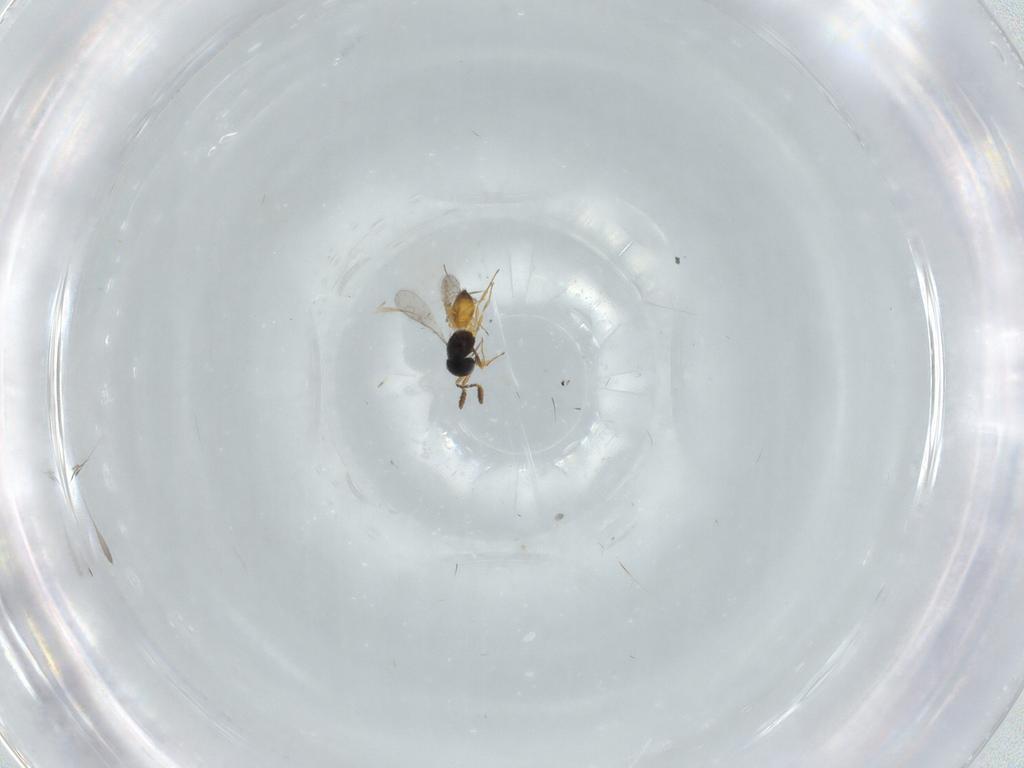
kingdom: Animalia
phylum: Arthropoda
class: Insecta
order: Hymenoptera
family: Scelionidae
